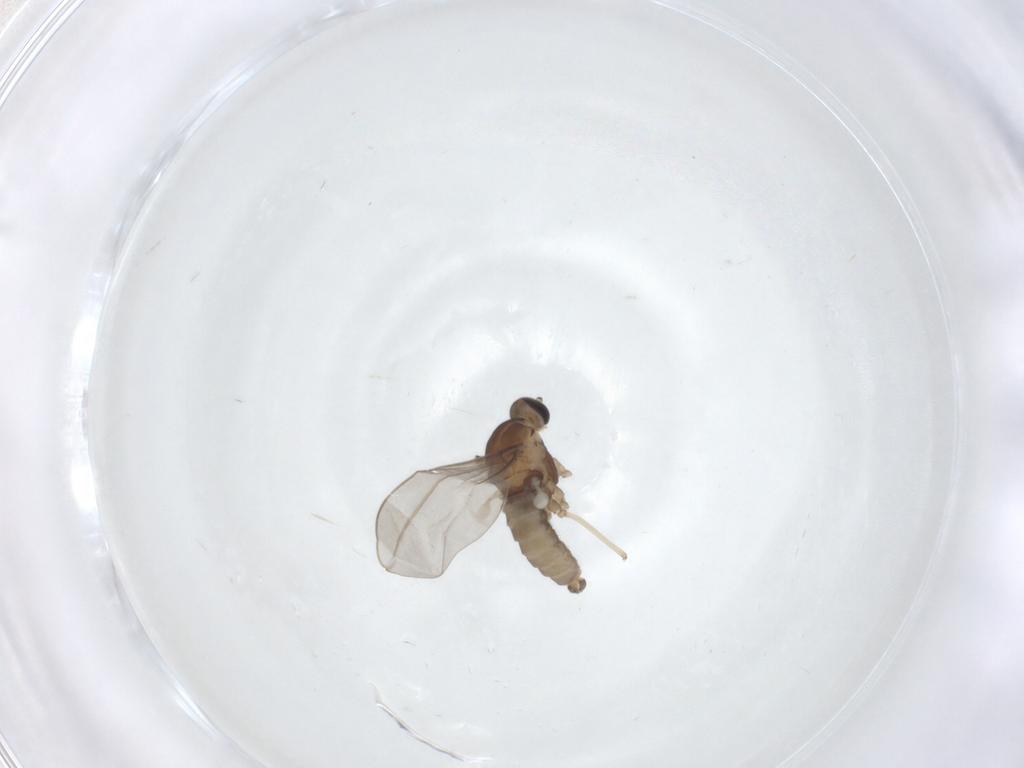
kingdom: Animalia
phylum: Arthropoda
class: Insecta
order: Diptera
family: Cecidomyiidae
